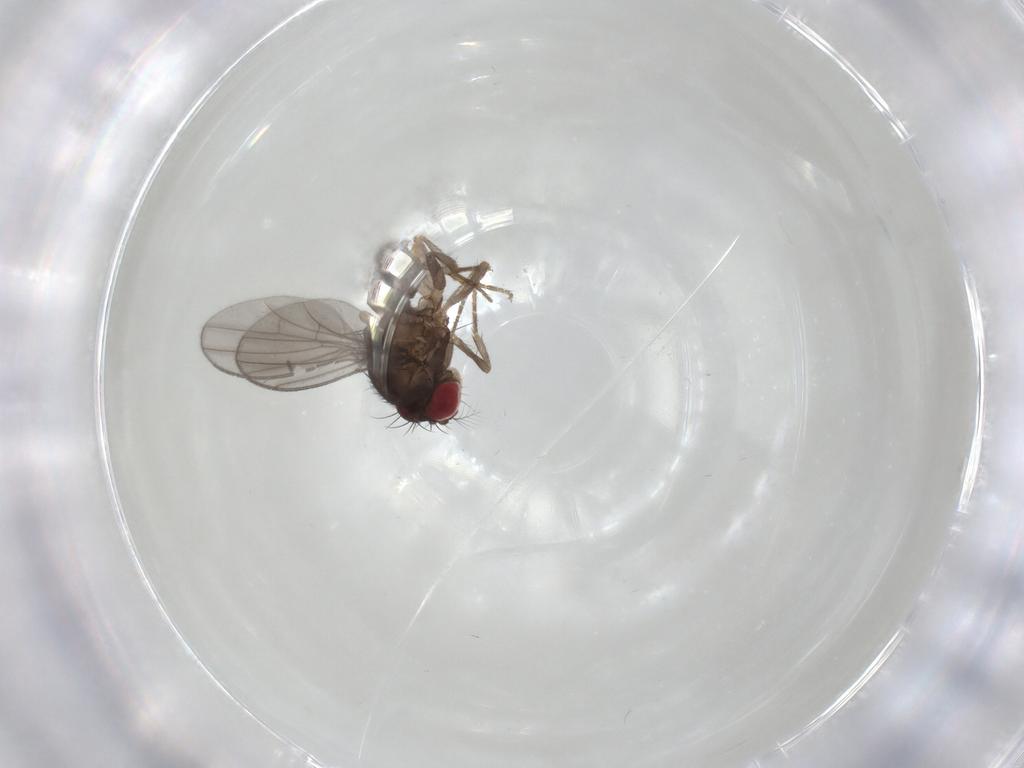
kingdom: Animalia
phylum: Arthropoda
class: Insecta
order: Diptera
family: Drosophilidae
